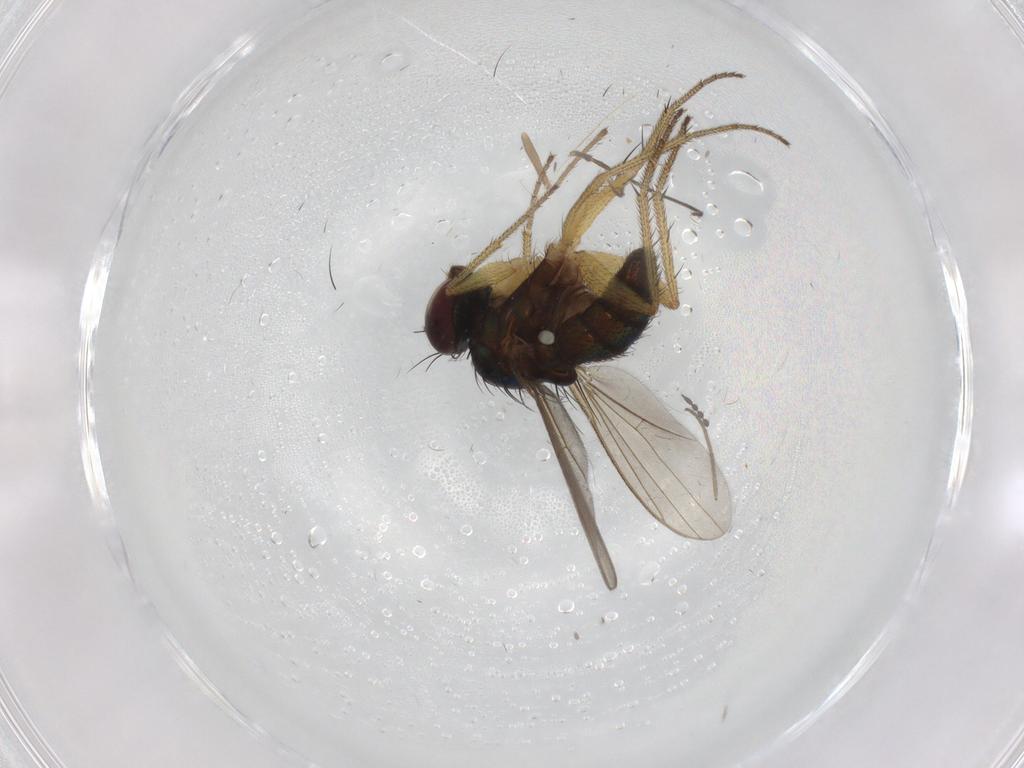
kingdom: Animalia
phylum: Arthropoda
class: Insecta
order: Diptera
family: Chironomidae
